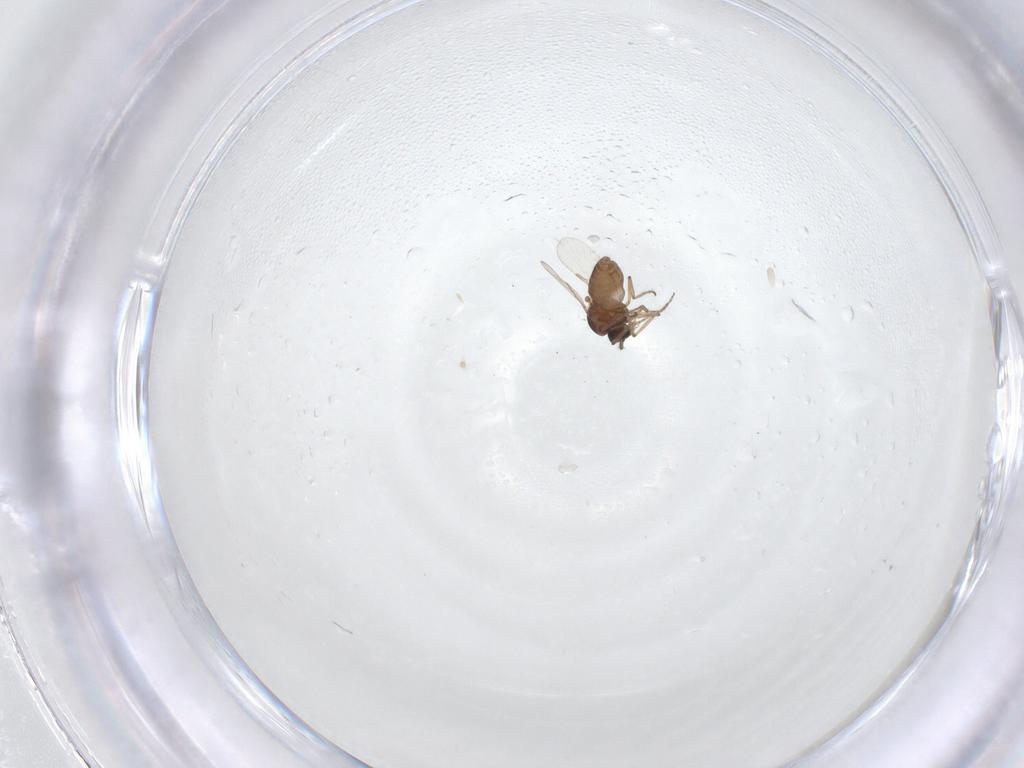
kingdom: Animalia
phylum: Arthropoda
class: Insecta
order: Diptera
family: Ceratopogonidae
